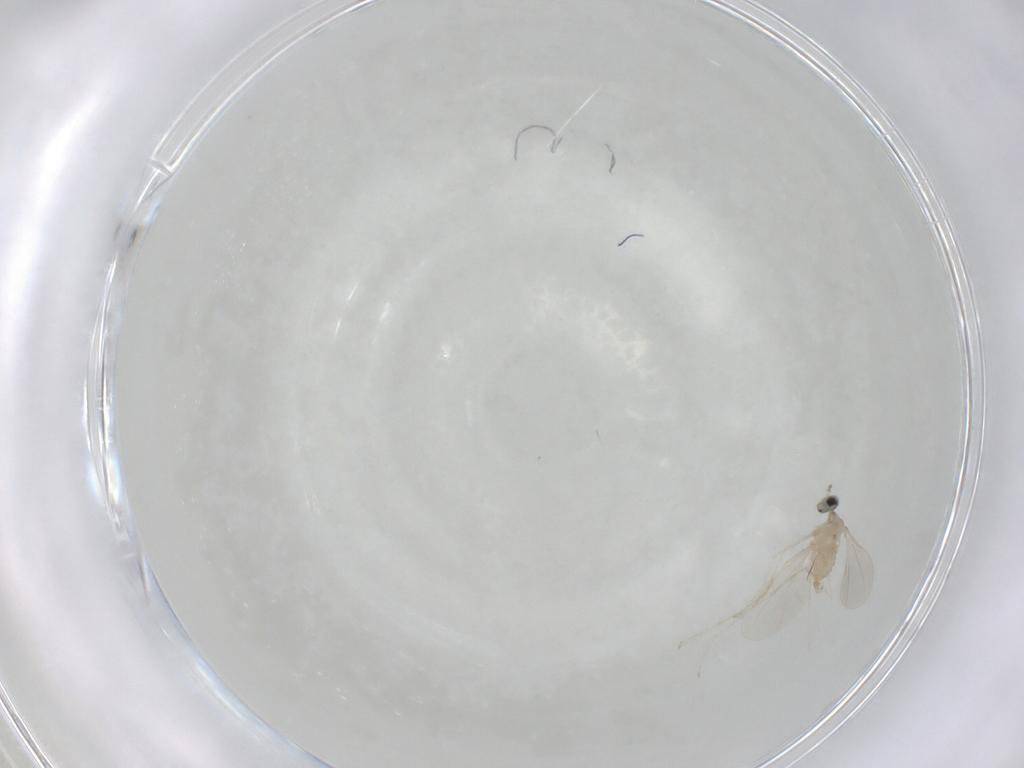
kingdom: Animalia
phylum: Arthropoda
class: Insecta
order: Diptera
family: Cecidomyiidae
